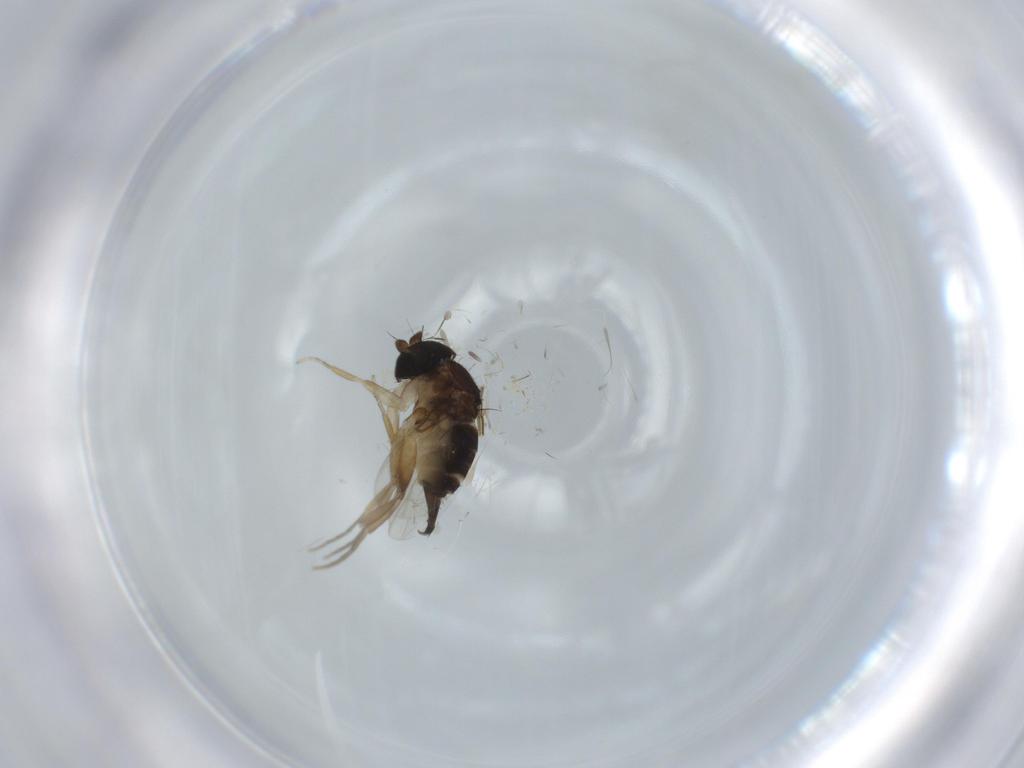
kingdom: Animalia
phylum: Arthropoda
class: Insecta
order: Diptera
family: Phoridae
